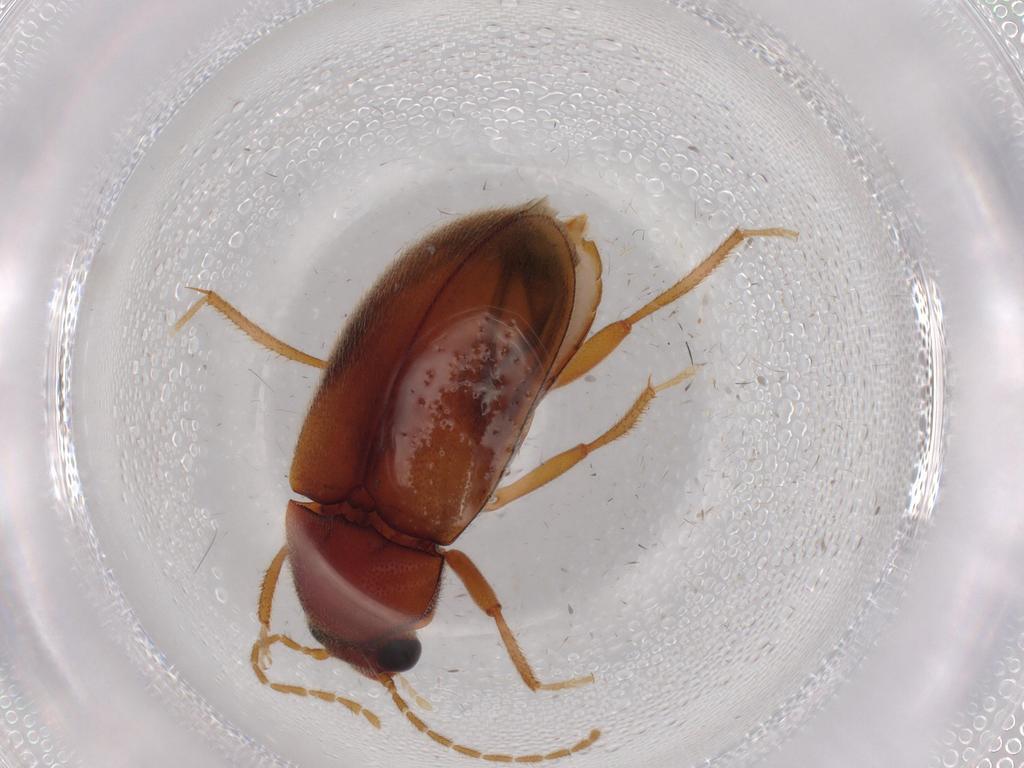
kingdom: Animalia
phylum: Arthropoda
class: Insecta
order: Coleoptera
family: Ptilodactylidae
